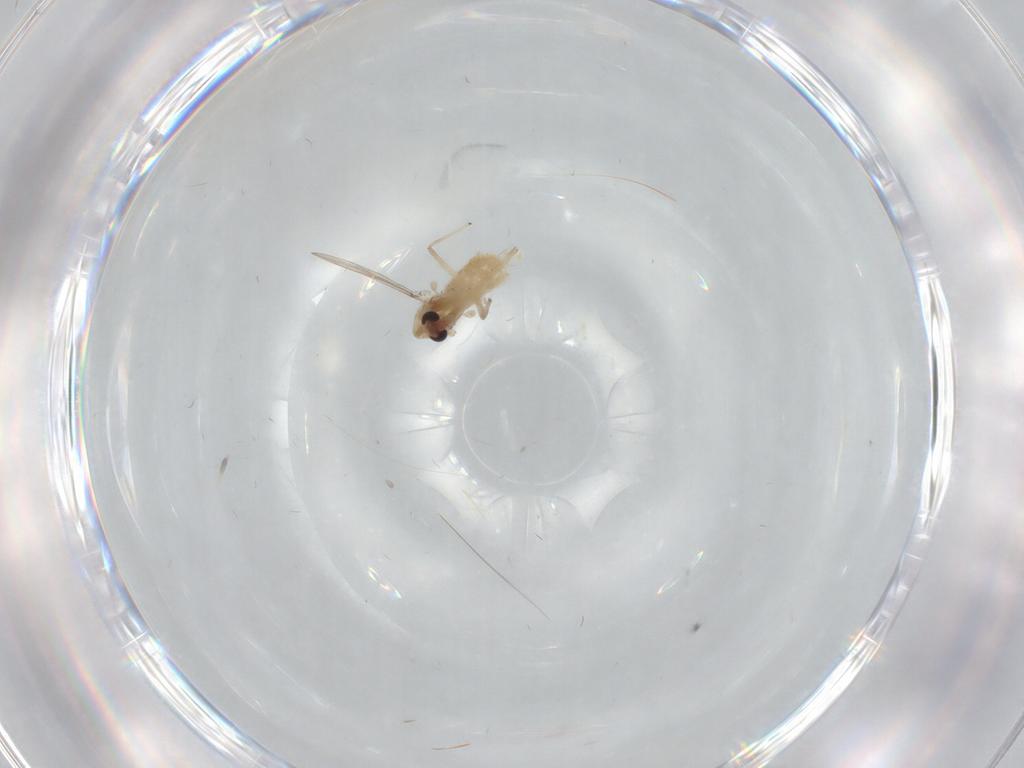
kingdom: Animalia
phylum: Arthropoda
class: Insecta
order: Diptera
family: Chironomidae
